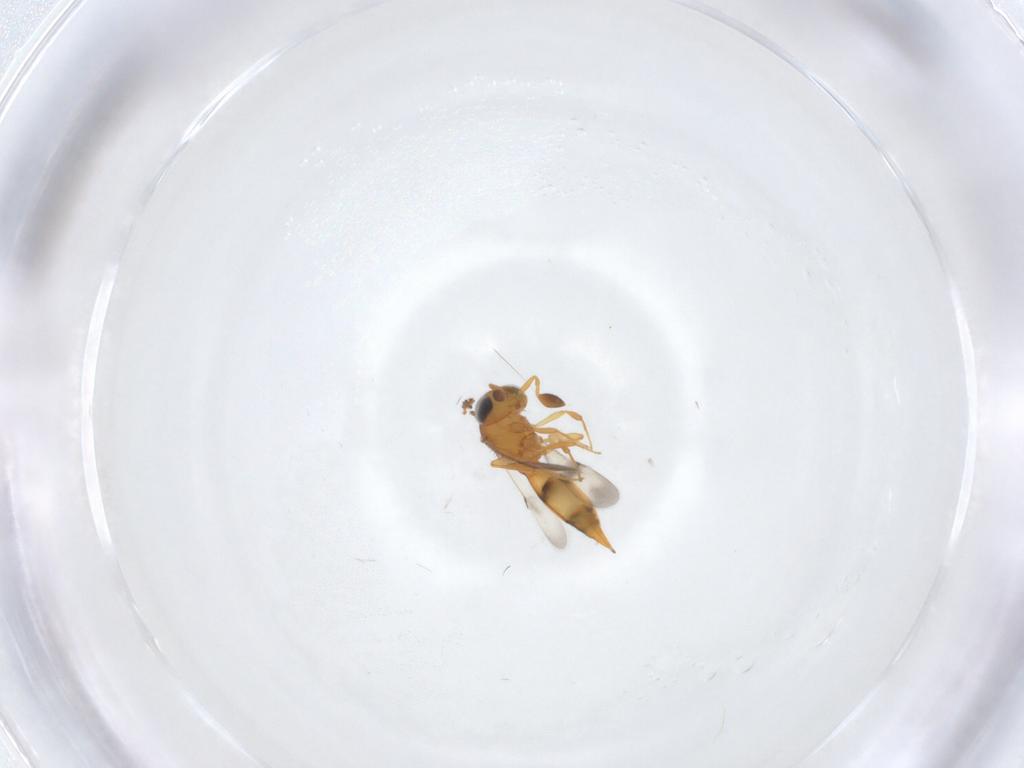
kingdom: Animalia
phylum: Arthropoda
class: Insecta
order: Hymenoptera
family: Scelionidae
